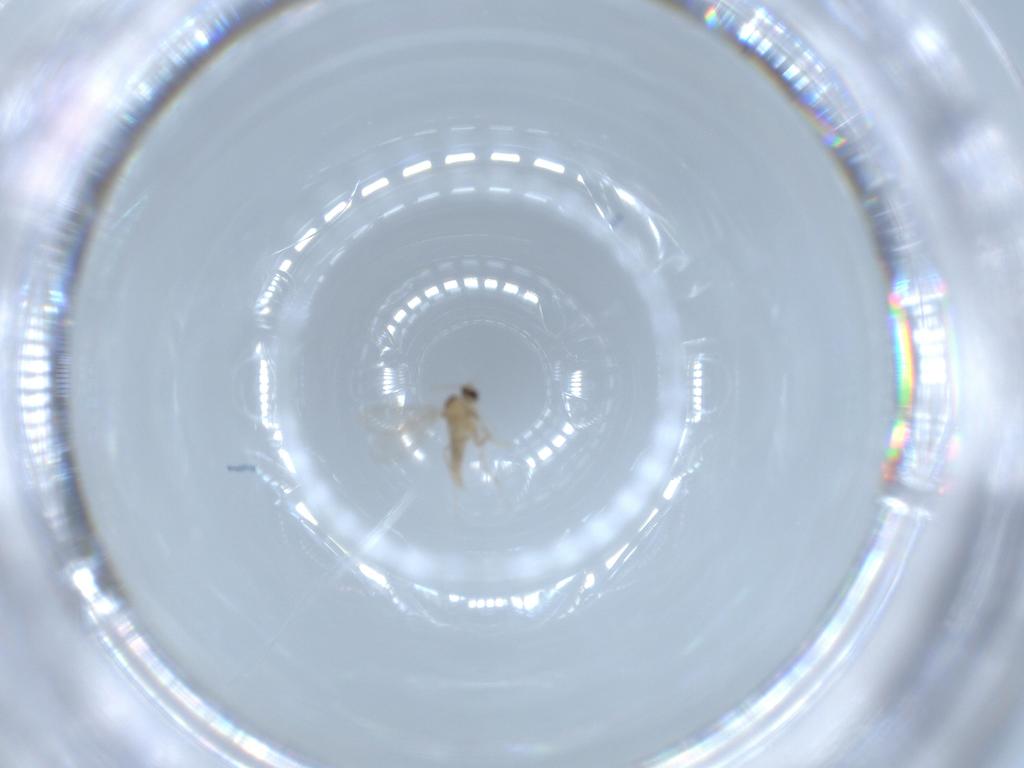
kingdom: Animalia
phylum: Arthropoda
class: Insecta
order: Diptera
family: Cecidomyiidae
